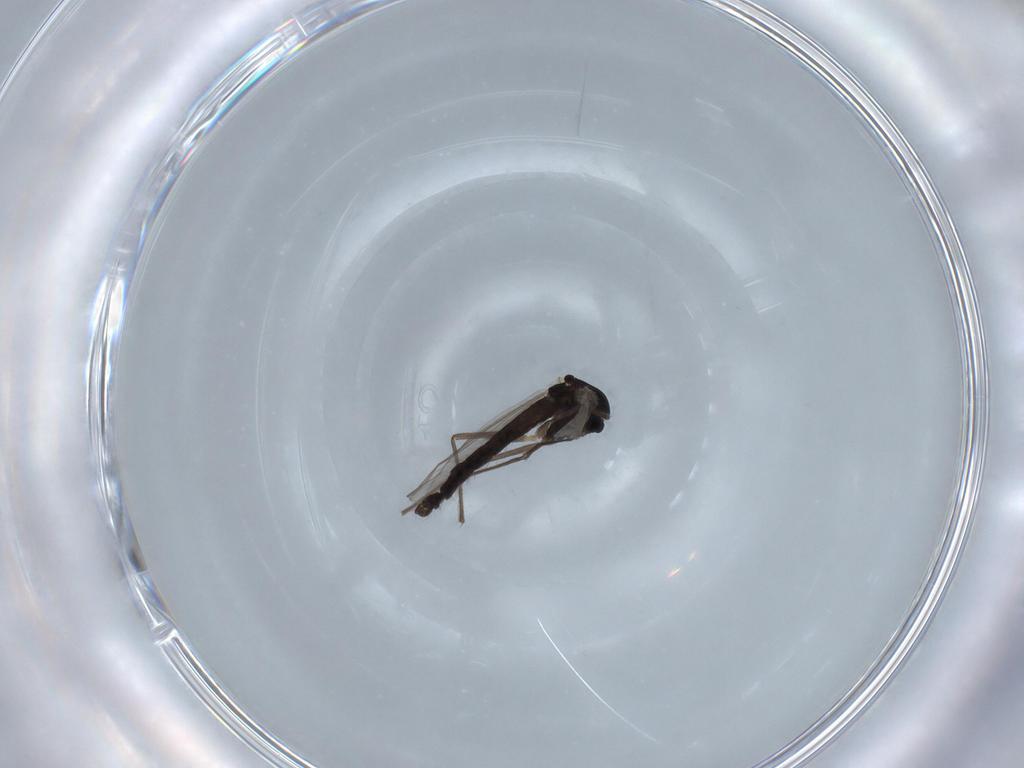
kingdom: Animalia
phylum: Arthropoda
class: Insecta
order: Diptera
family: Chironomidae
